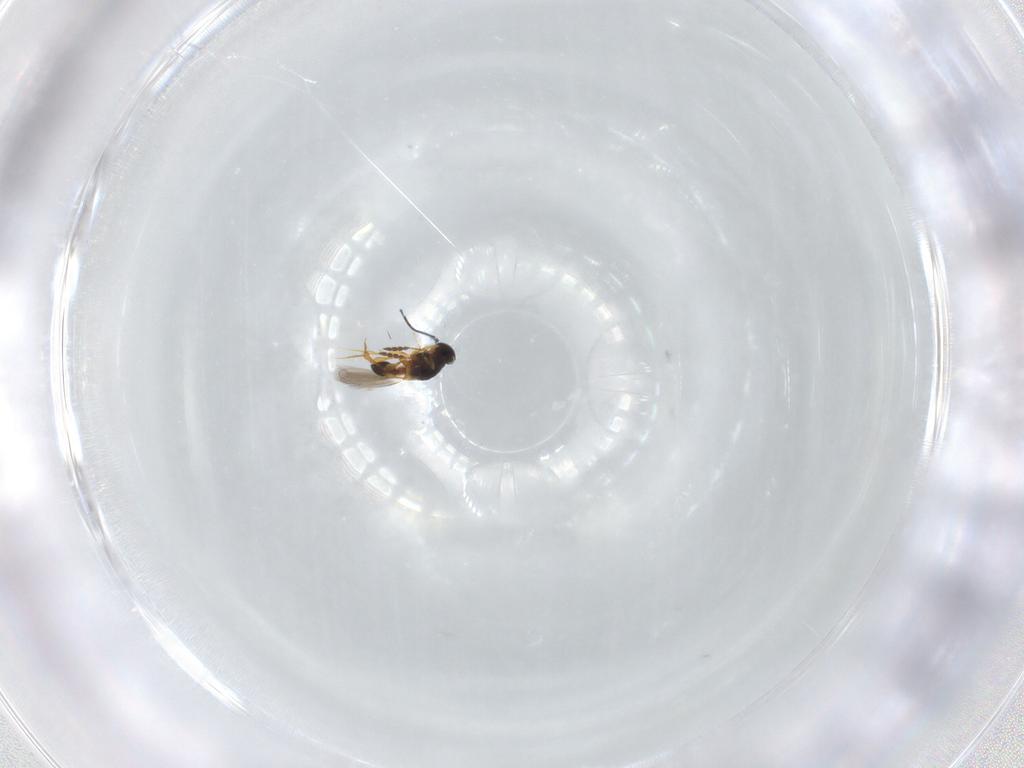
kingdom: Animalia
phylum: Arthropoda
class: Insecta
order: Hymenoptera
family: Platygastridae
